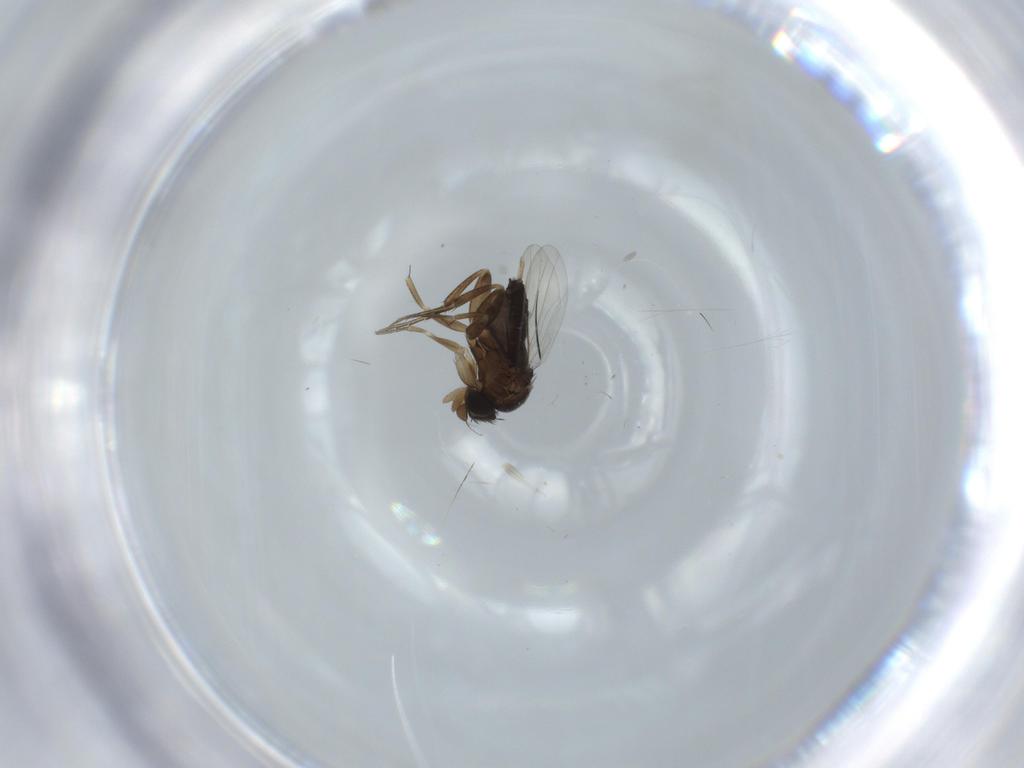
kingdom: Animalia
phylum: Arthropoda
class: Insecta
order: Diptera
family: Phoridae
